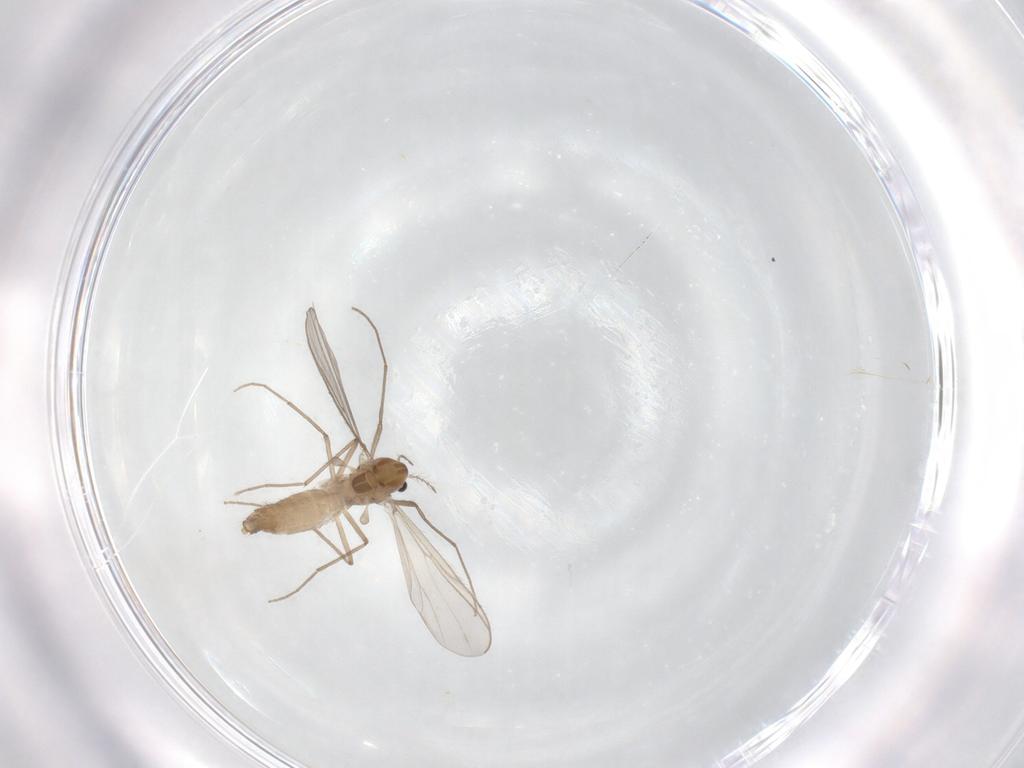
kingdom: Animalia
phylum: Arthropoda
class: Insecta
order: Diptera
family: Chironomidae
